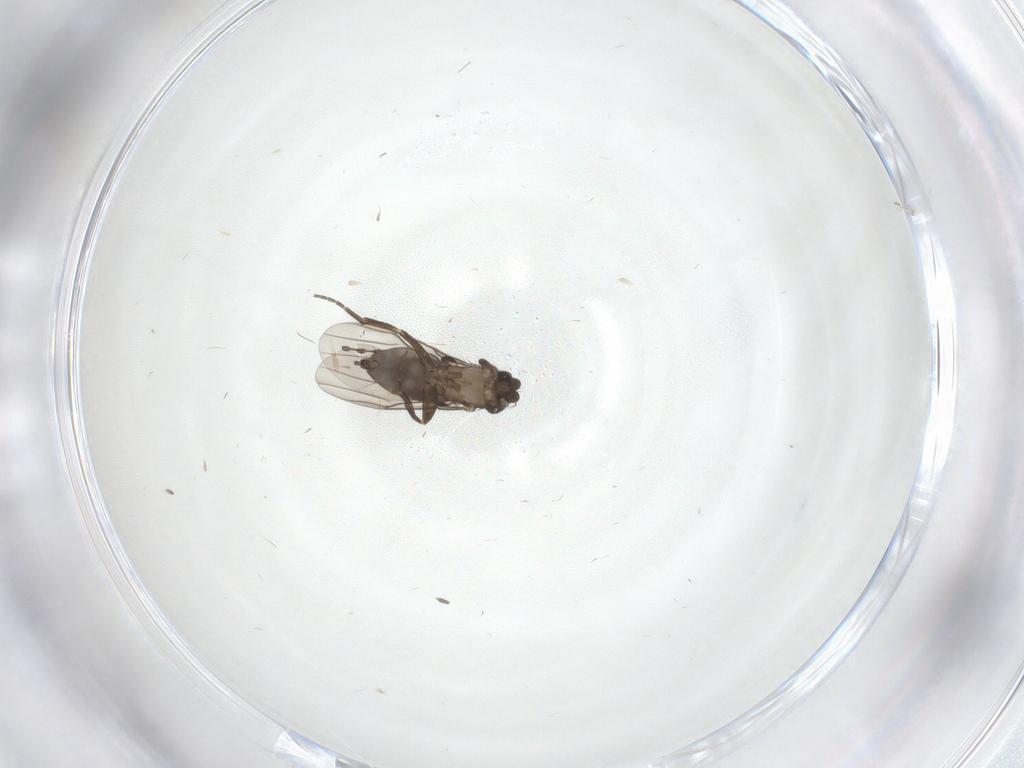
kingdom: Animalia
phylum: Arthropoda
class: Insecta
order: Diptera
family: Phoridae
